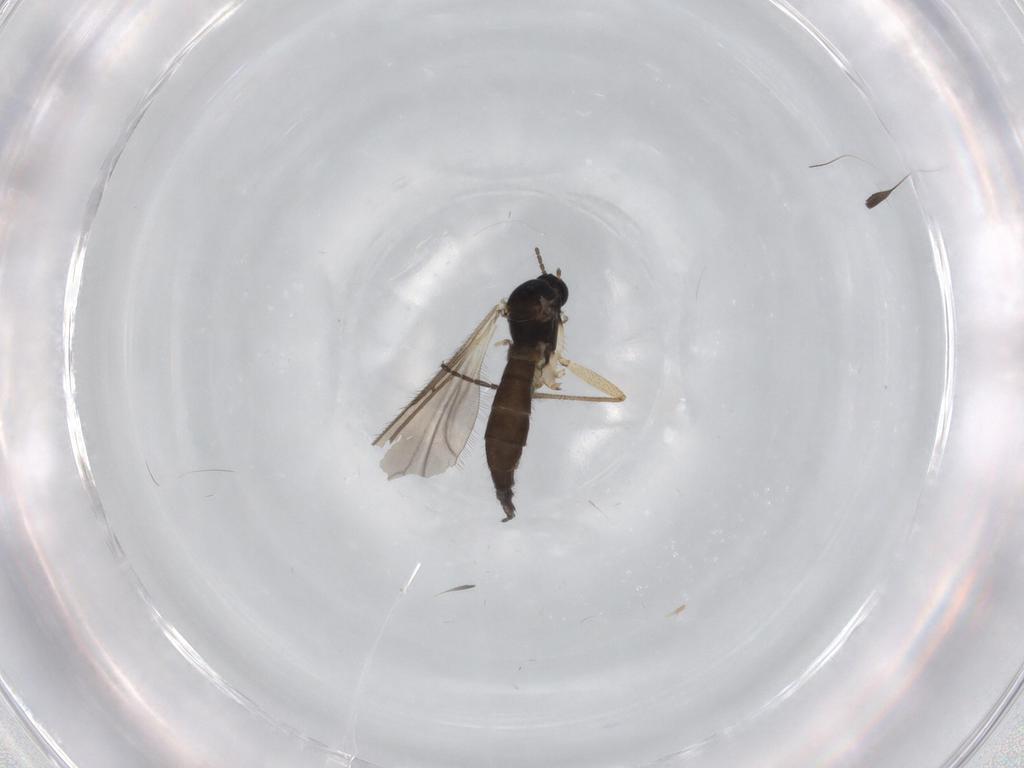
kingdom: Animalia
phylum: Arthropoda
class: Insecta
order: Diptera
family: Sciaridae
